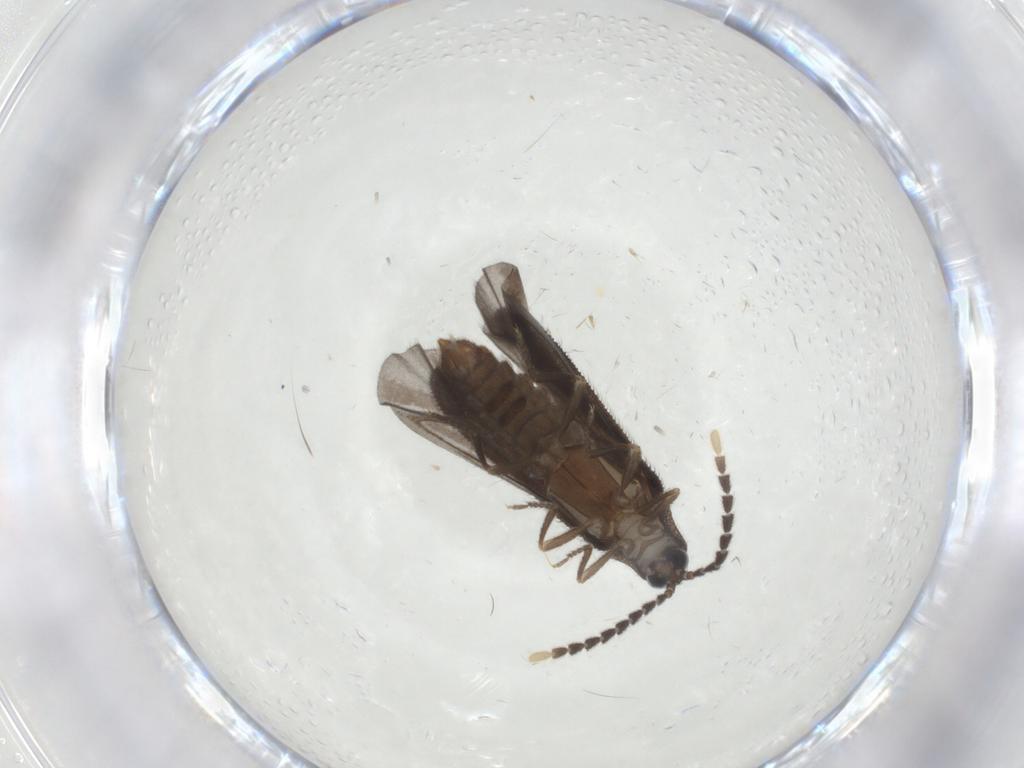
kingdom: Animalia
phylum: Arthropoda
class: Insecta
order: Coleoptera
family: Lycidae
